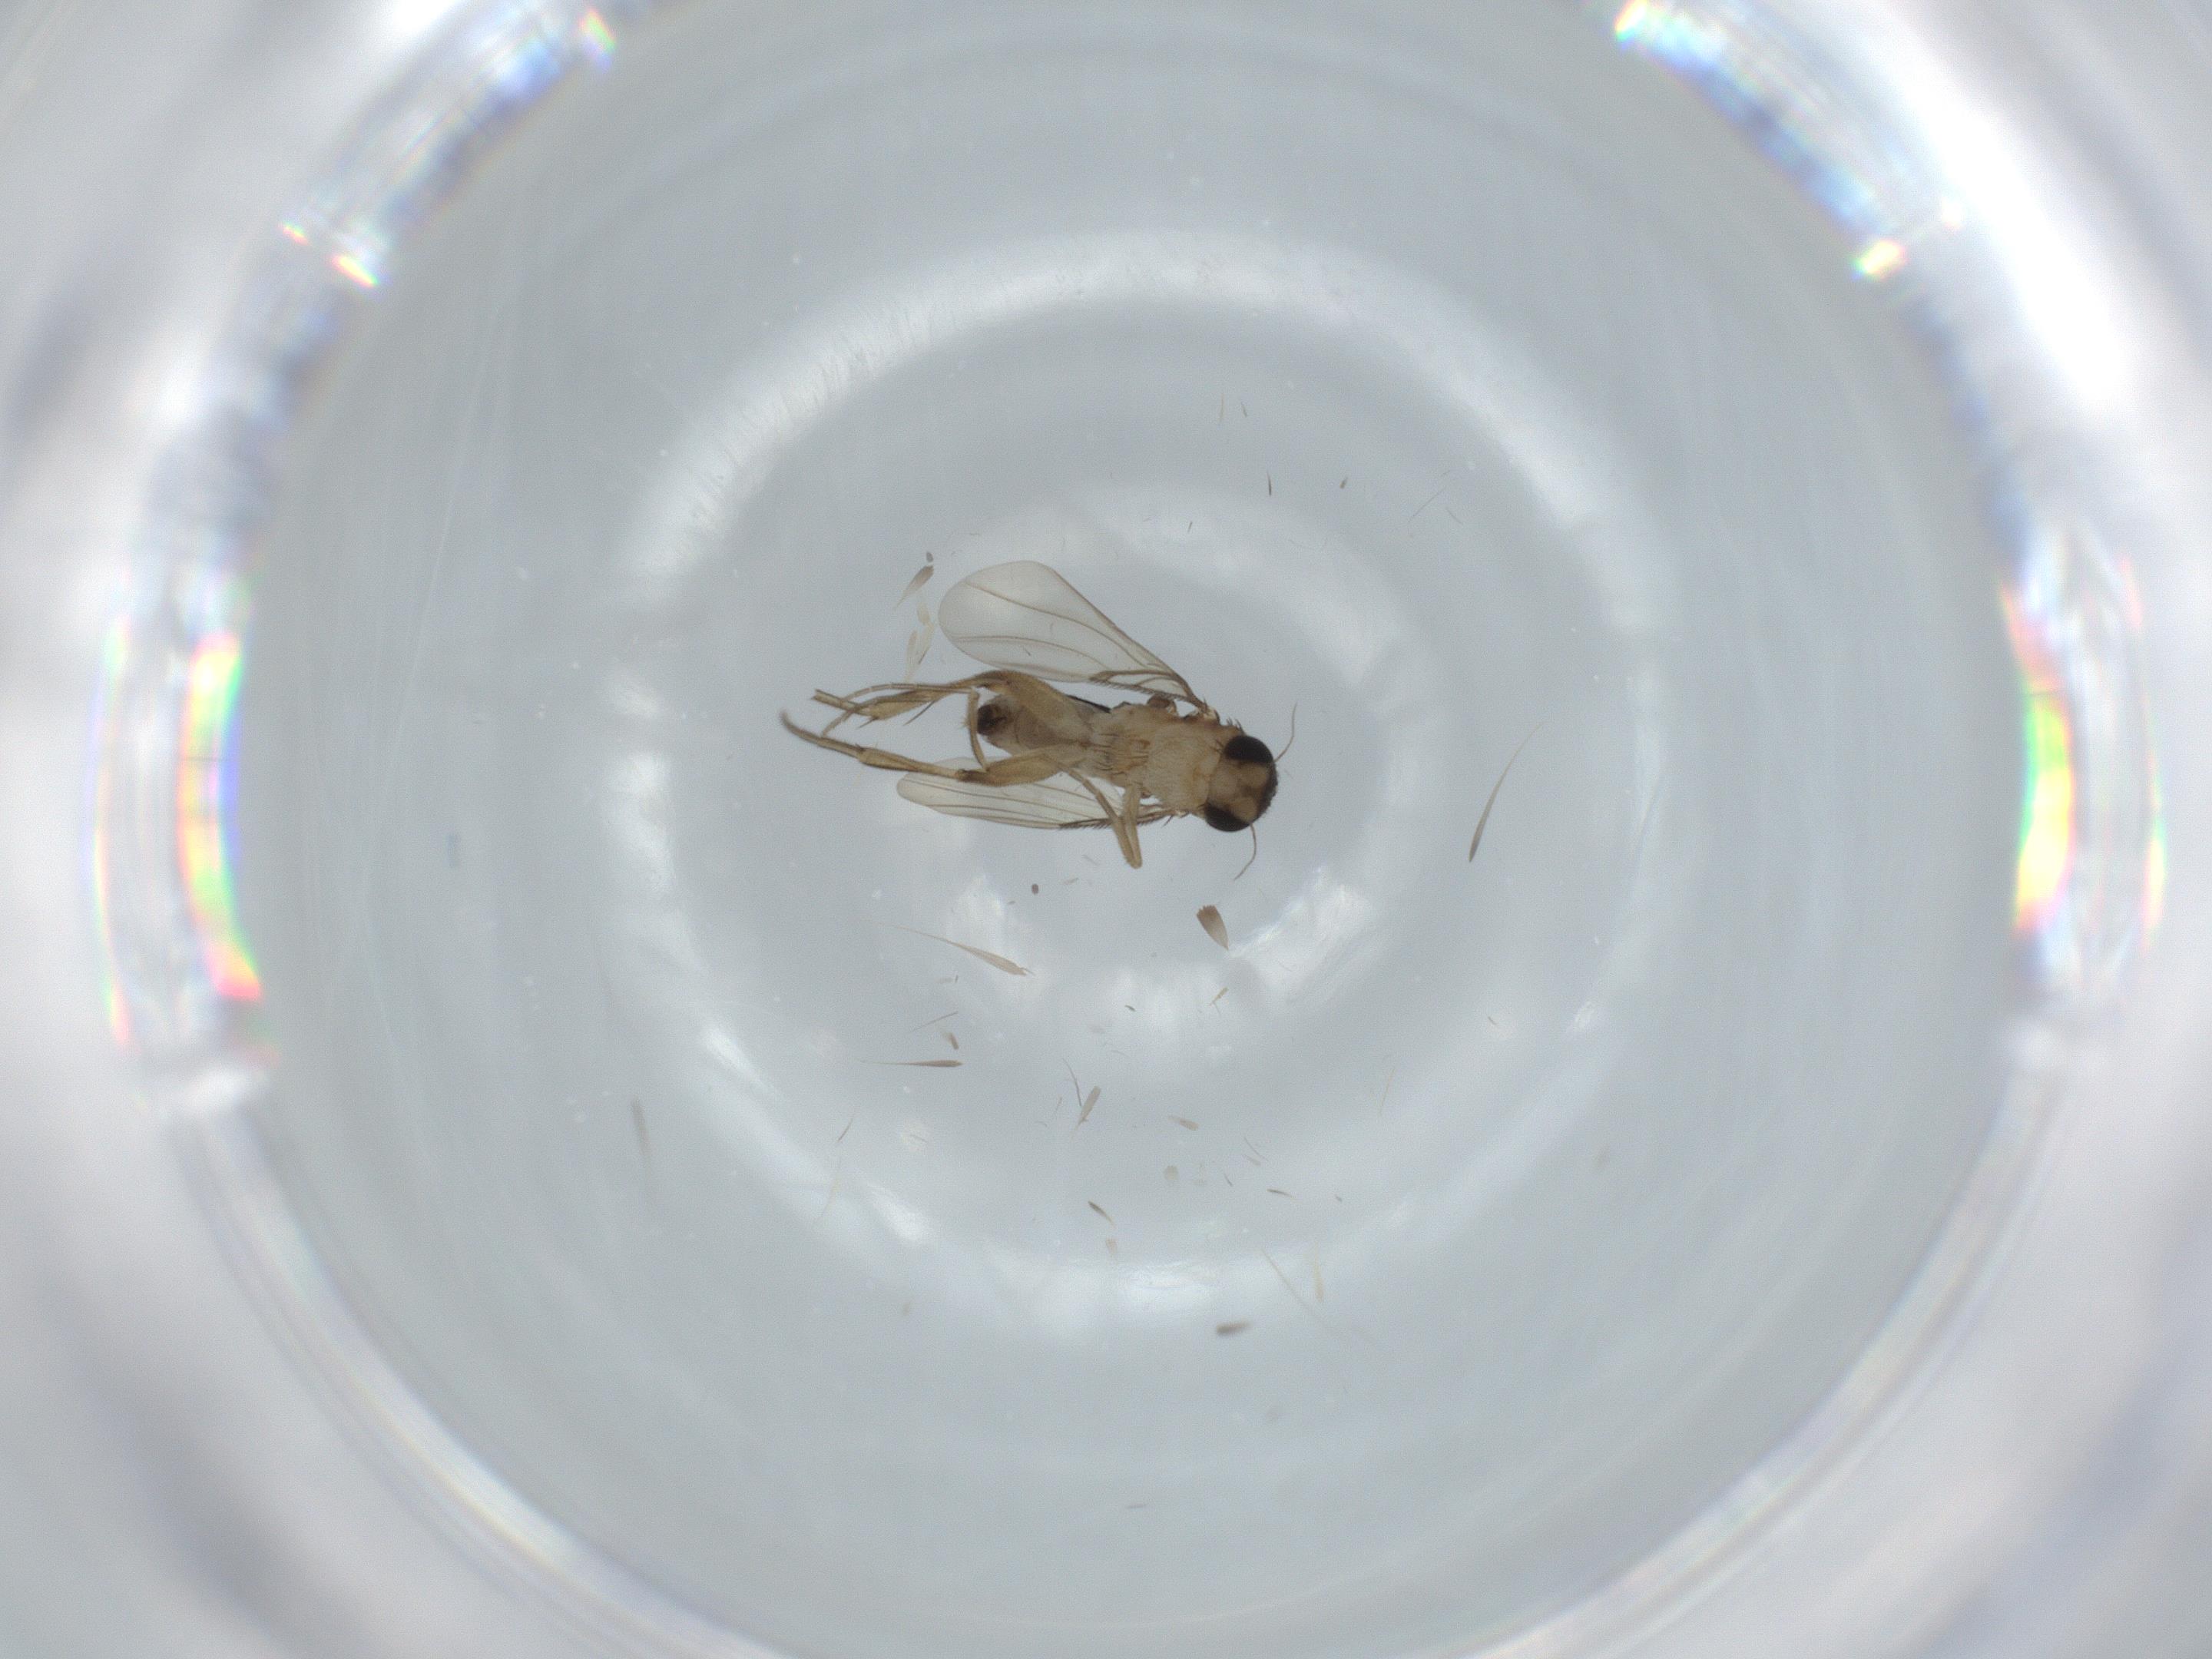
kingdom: Animalia
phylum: Arthropoda
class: Insecta
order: Diptera
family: Phoridae
